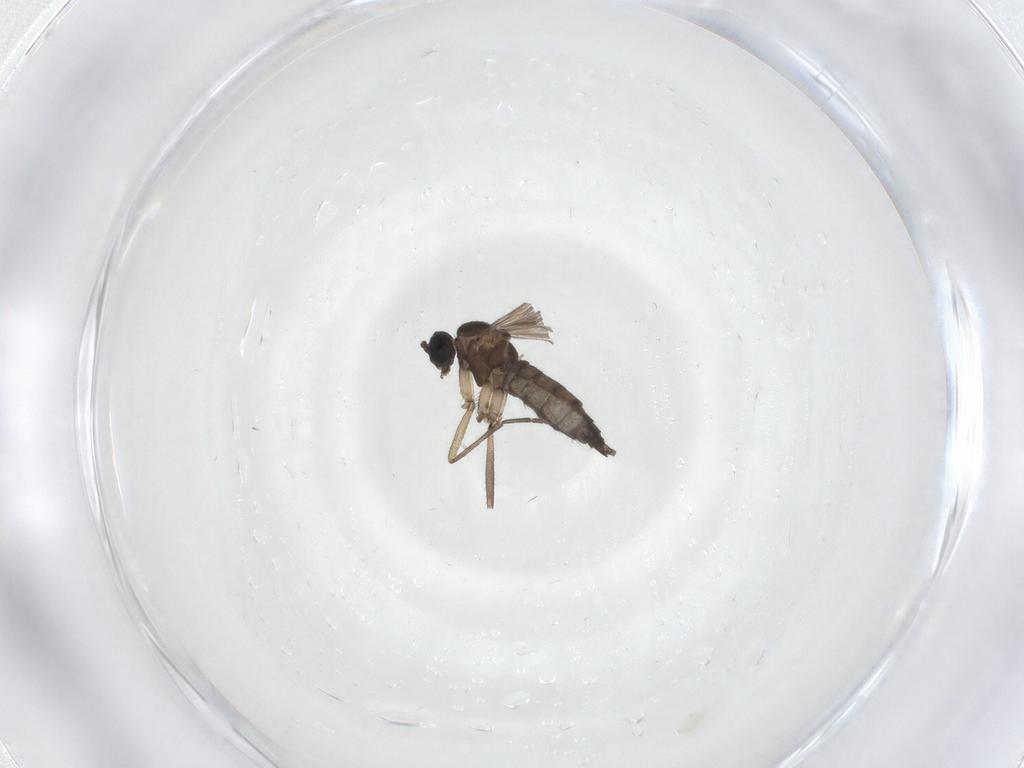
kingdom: Animalia
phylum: Arthropoda
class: Insecta
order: Diptera
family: Sciaridae
